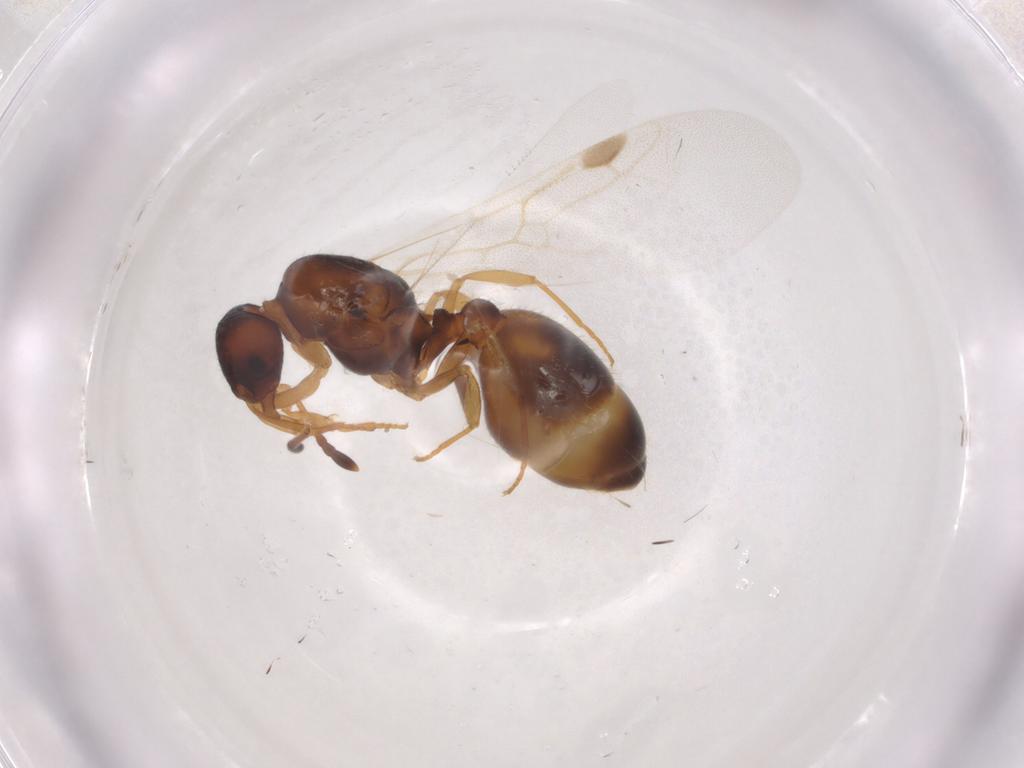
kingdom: Animalia
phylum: Arthropoda
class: Insecta
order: Hymenoptera
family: Formicidae
